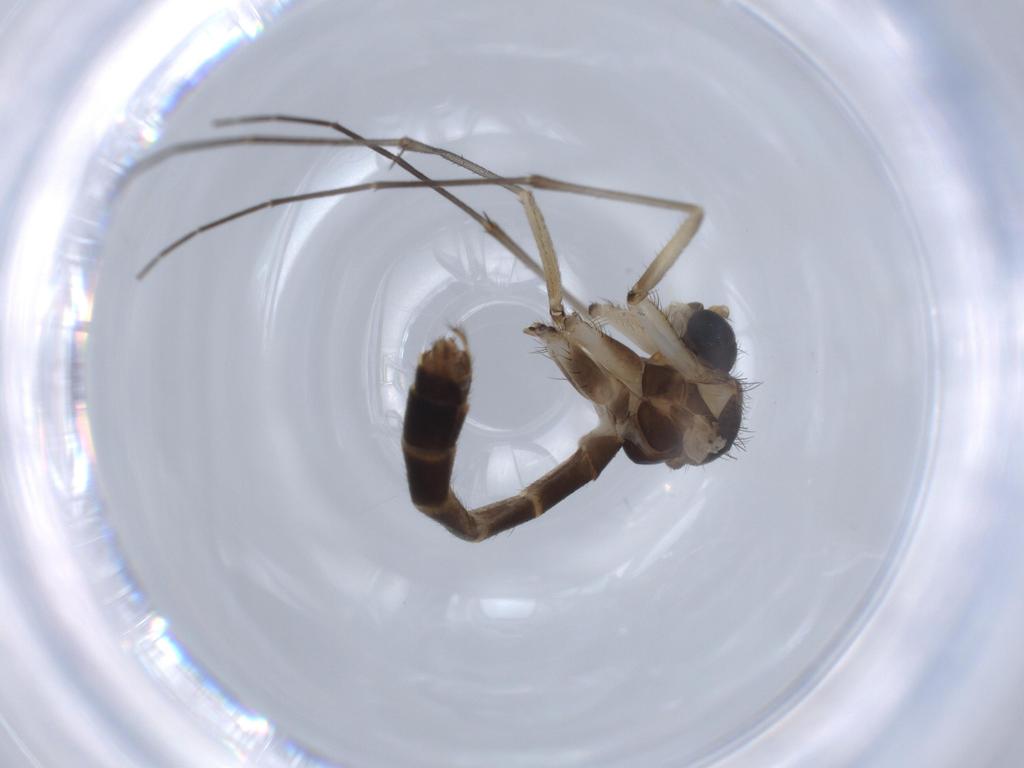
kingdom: Animalia
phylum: Arthropoda
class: Insecta
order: Diptera
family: Heleomyzidae
